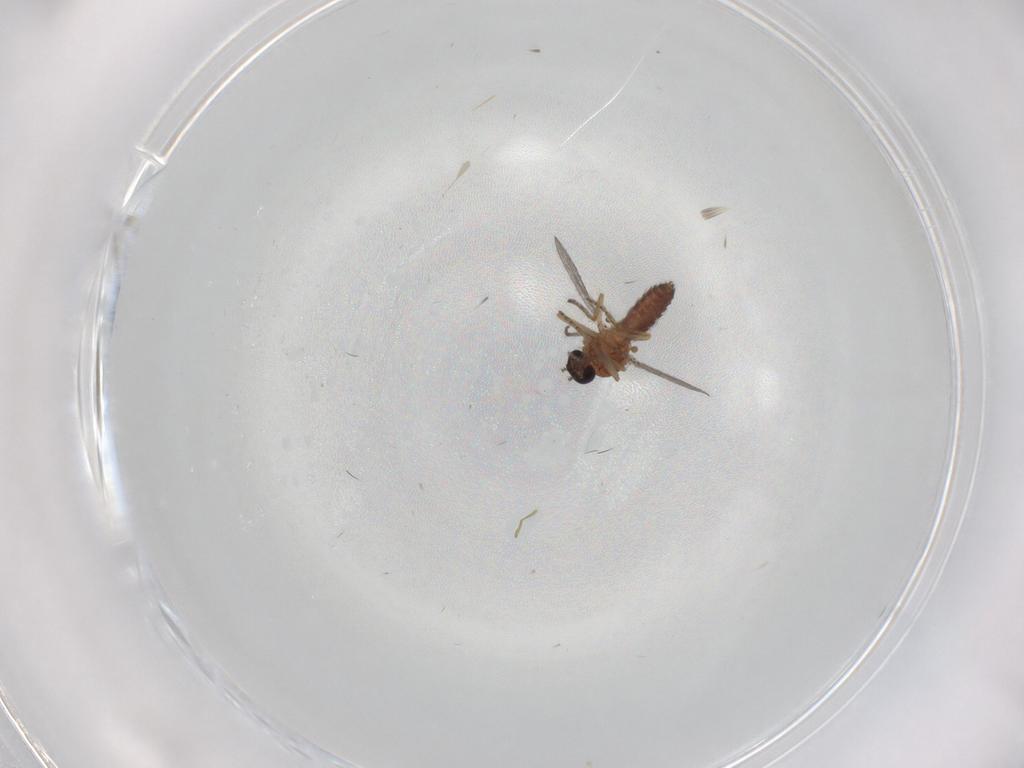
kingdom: Animalia
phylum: Arthropoda
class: Insecta
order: Diptera
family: Ceratopogonidae
